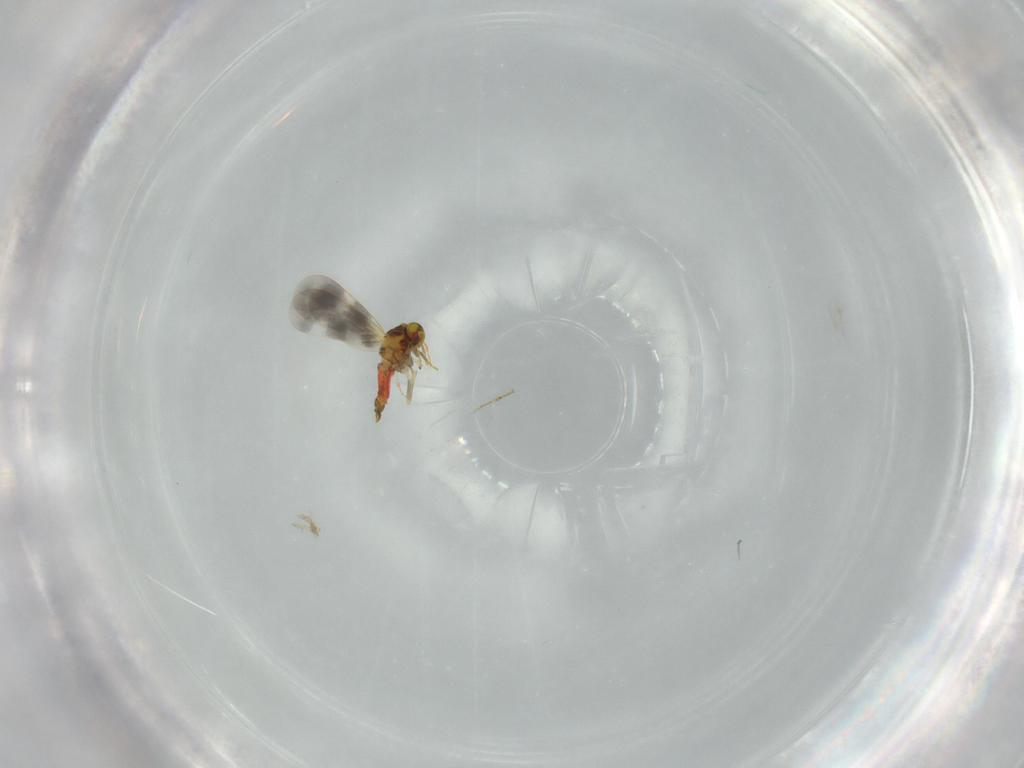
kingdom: Animalia
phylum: Arthropoda
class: Insecta
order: Hemiptera
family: Aleyrodidae
